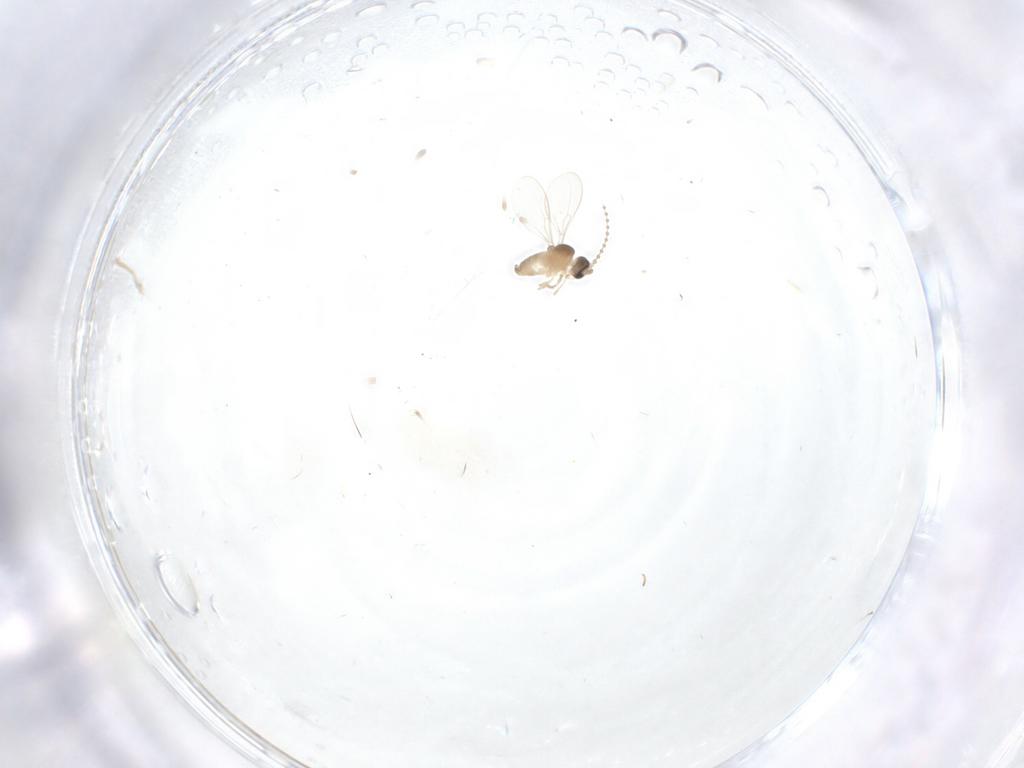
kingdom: Animalia
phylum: Arthropoda
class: Insecta
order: Diptera
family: Cecidomyiidae
